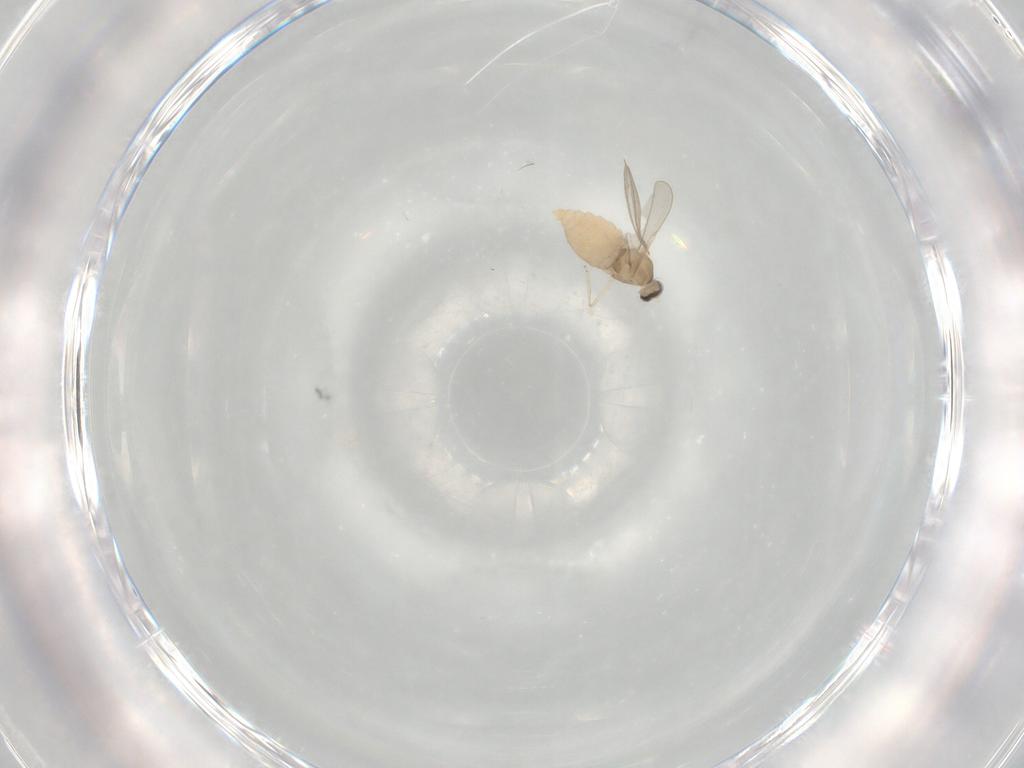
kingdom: Animalia
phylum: Arthropoda
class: Insecta
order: Diptera
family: Cecidomyiidae
